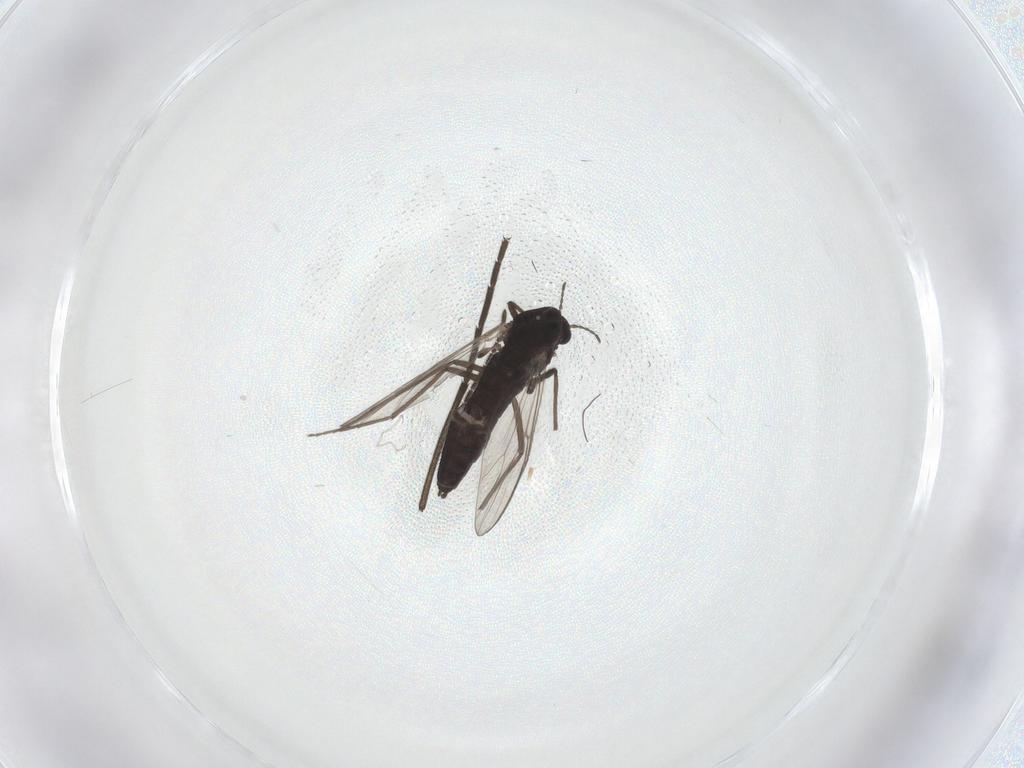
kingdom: Animalia
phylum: Arthropoda
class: Insecta
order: Diptera
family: Chironomidae
